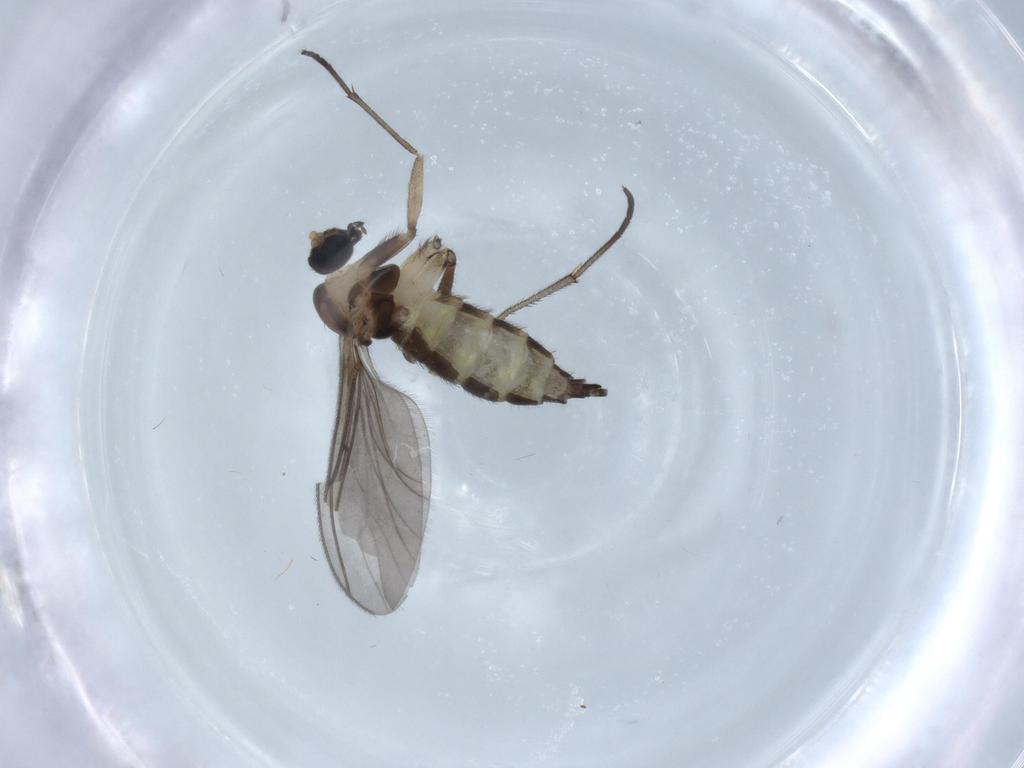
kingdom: Animalia
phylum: Arthropoda
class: Insecta
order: Diptera
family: Sciaridae
